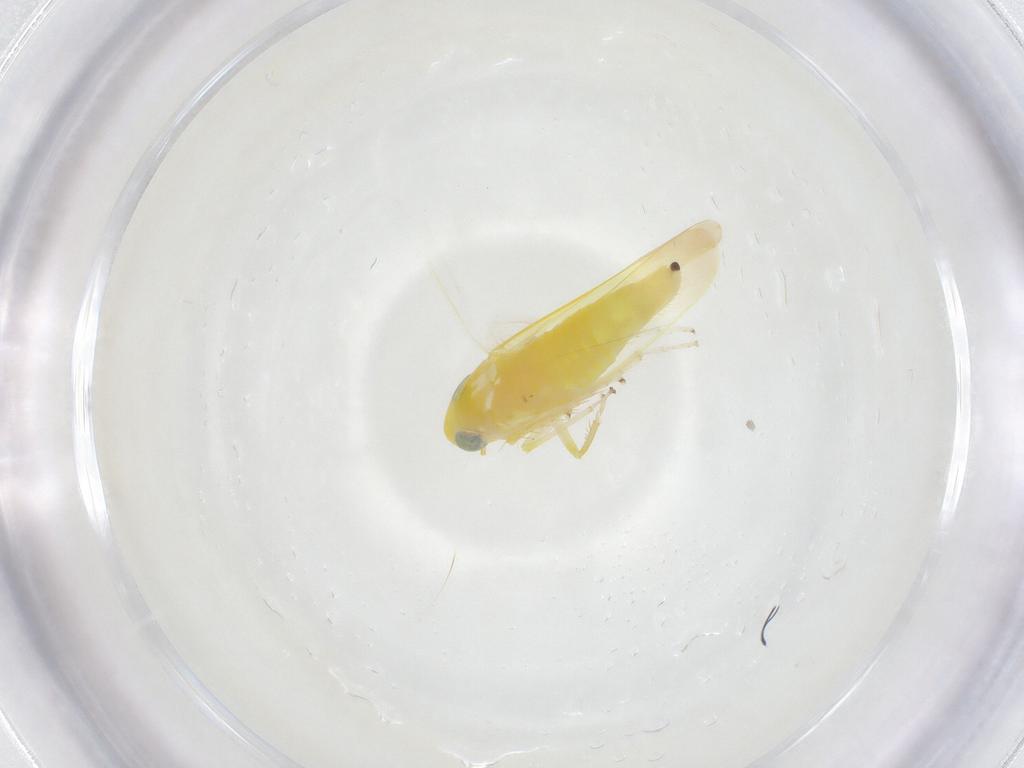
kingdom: Animalia
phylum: Arthropoda
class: Insecta
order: Hemiptera
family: Cicadellidae
